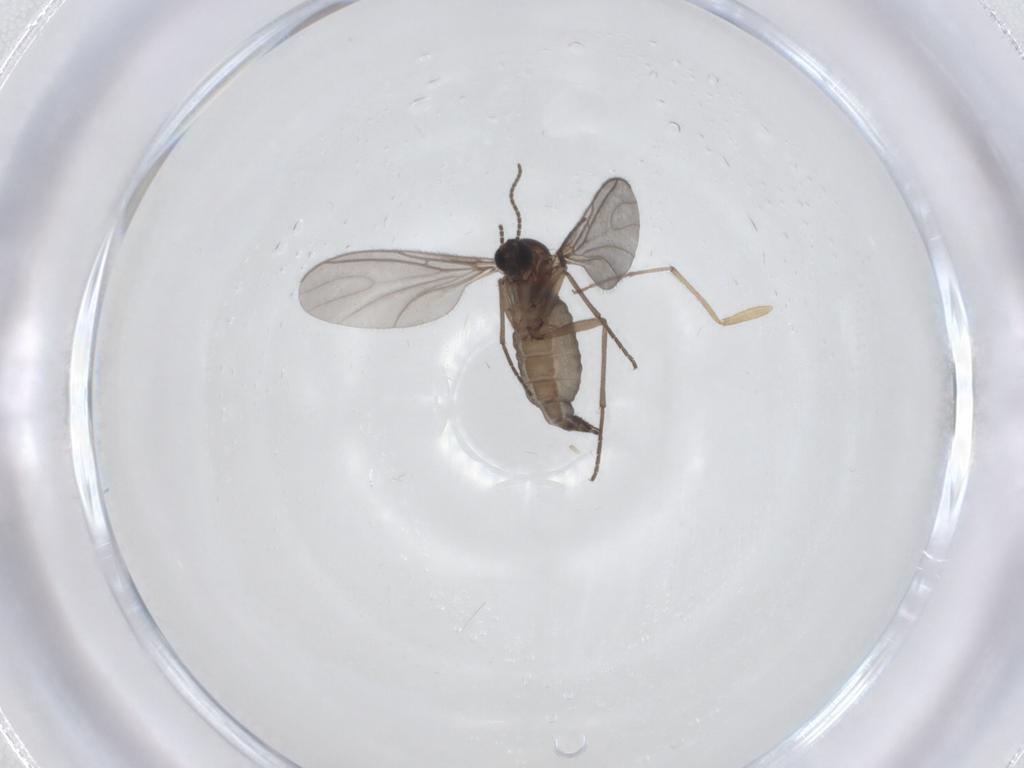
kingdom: Animalia
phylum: Arthropoda
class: Insecta
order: Diptera
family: Sciaridae
